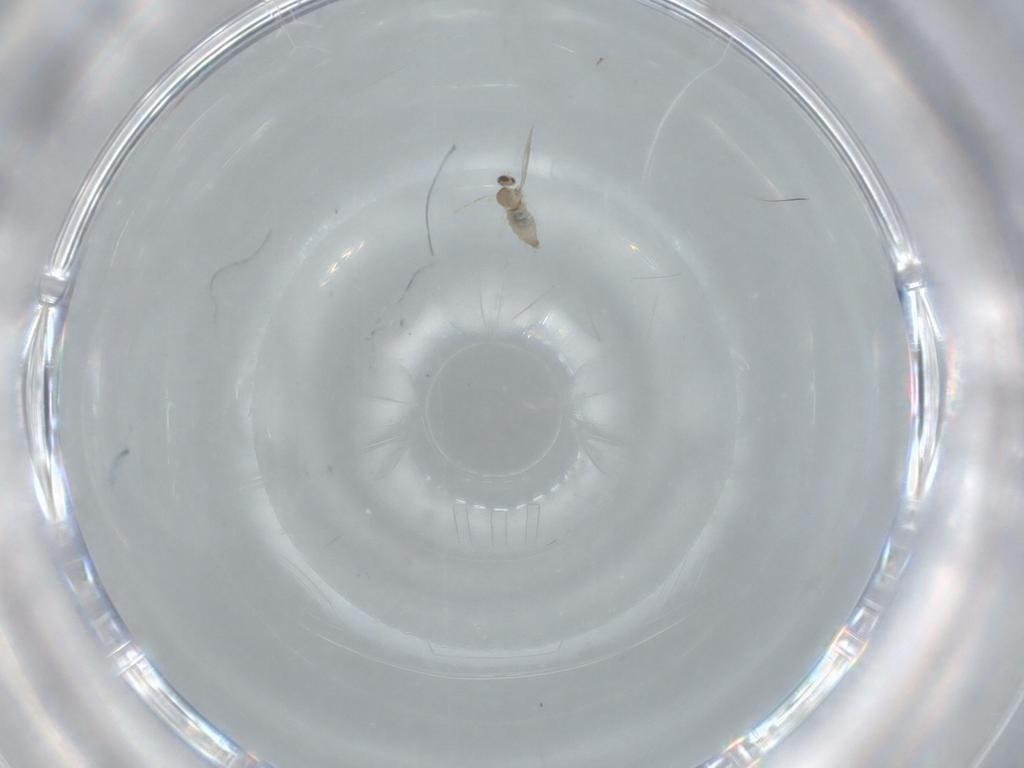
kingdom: Animalia
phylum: Arthropoda
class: Insecta
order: Diptera
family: Cecidomyiidae
